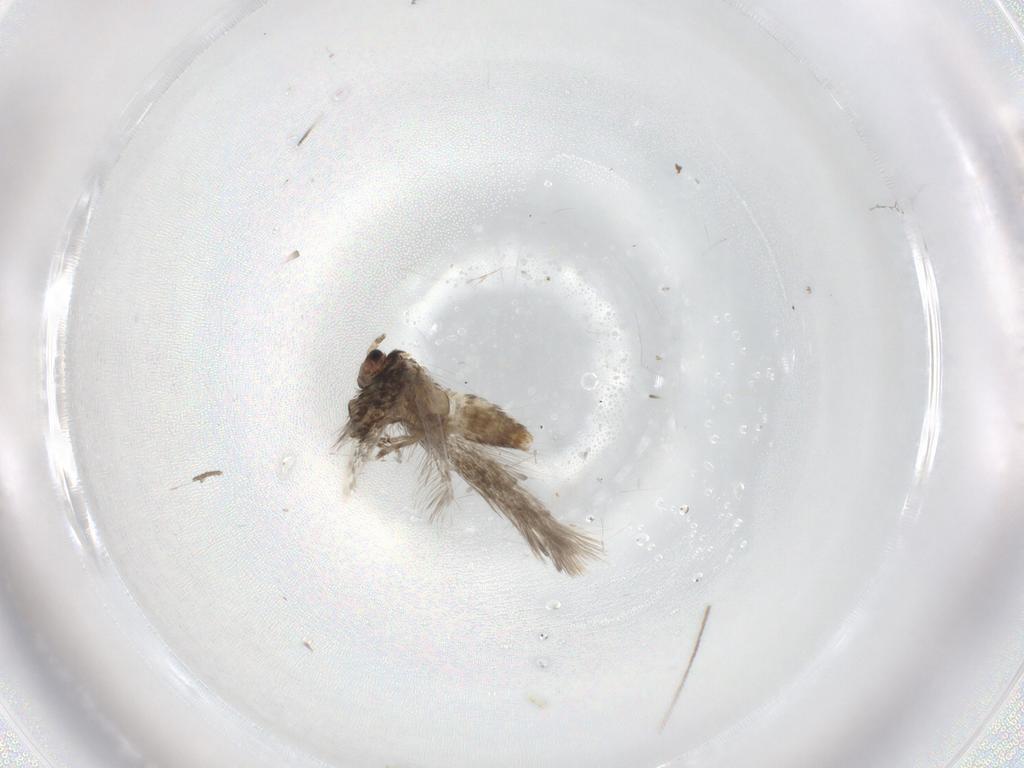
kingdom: Animalia
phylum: Arthropoda
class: Insecta
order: Lepidoptera
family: Nepticulidae
